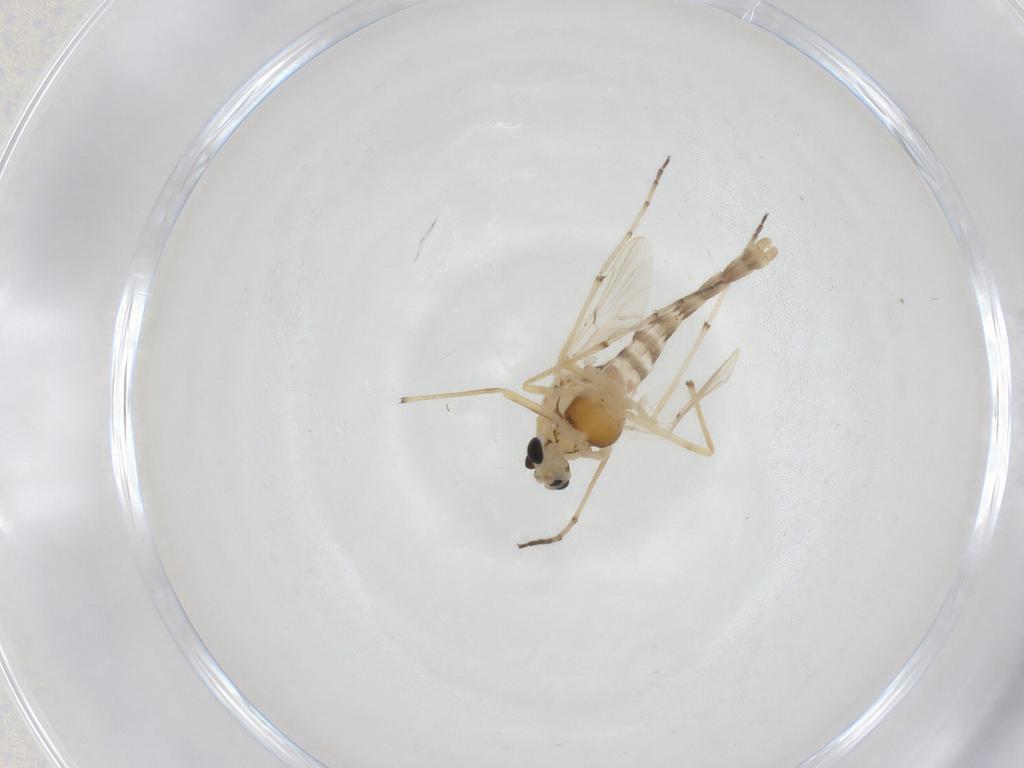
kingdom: Animalia
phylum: Arthropoda
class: Insecta
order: Diptera
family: Chironomidae
